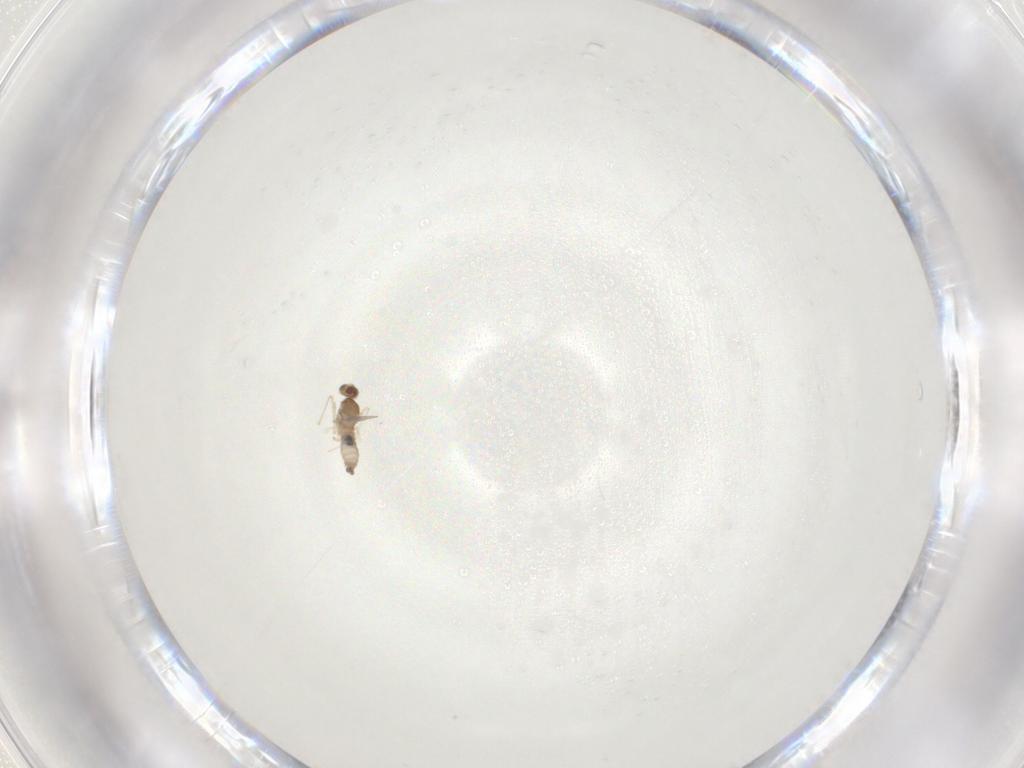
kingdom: Animalia
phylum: Arthropoda
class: Insecta
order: Diptera
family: Cecidomyiidae
